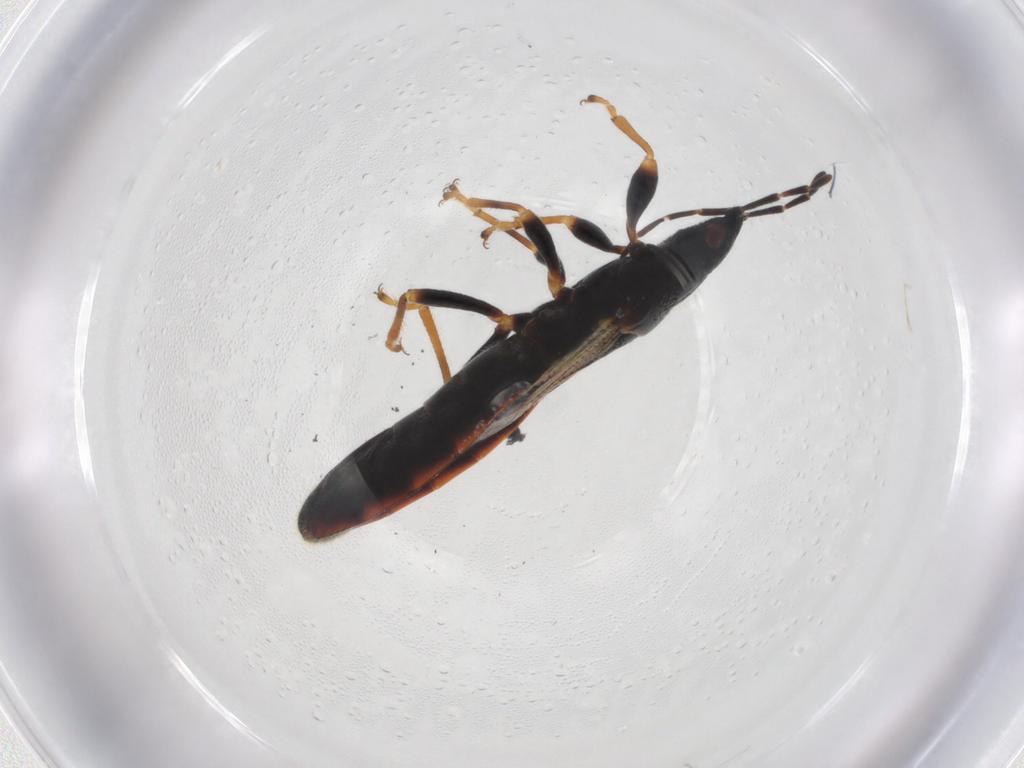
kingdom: Animalia
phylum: Arthropoda
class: Insecta
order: Hemiptera
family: Blissidae
